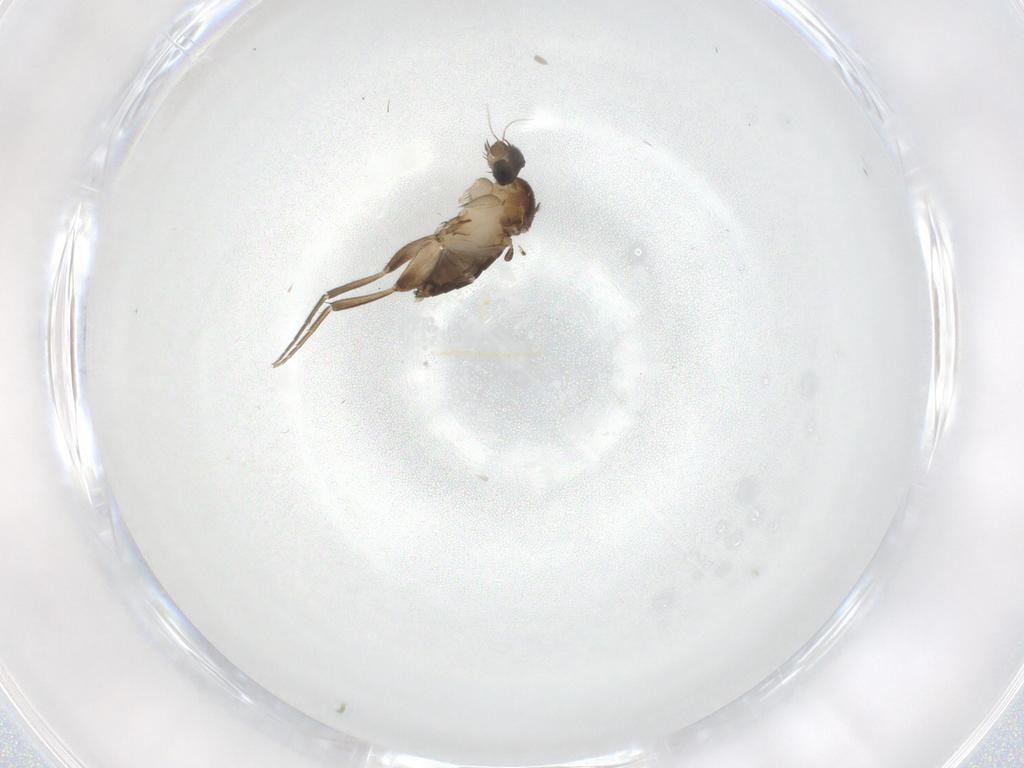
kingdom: Animalia
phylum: Arthropoda
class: Insecta
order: Diptera
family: Phoridae
